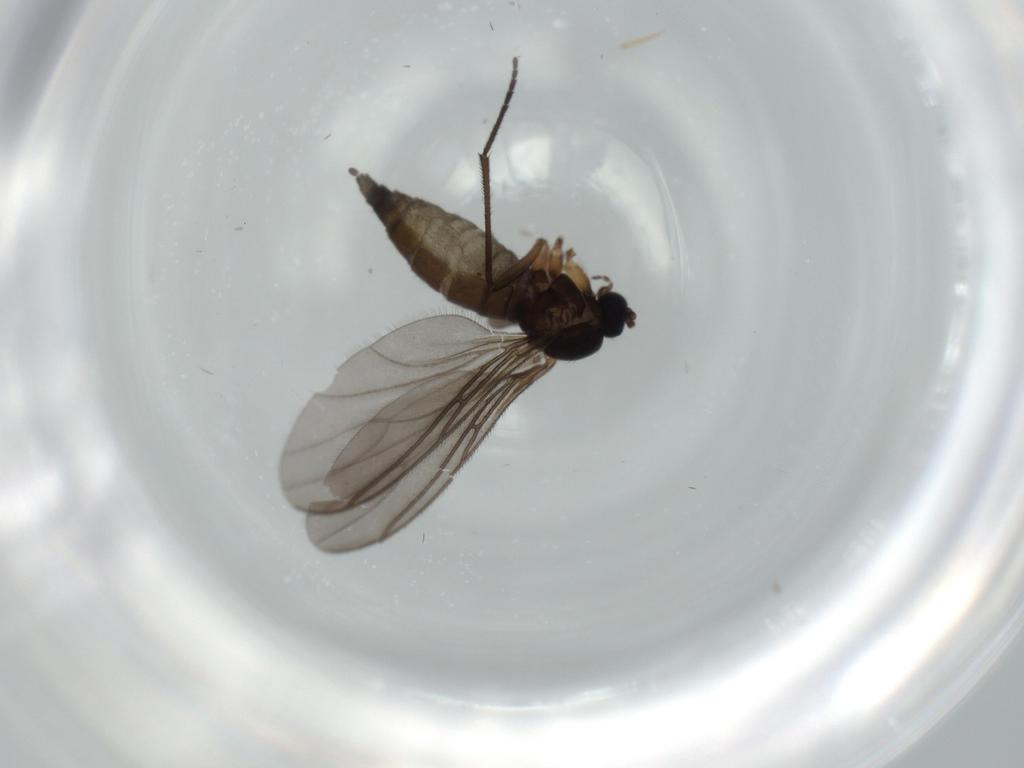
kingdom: Animalia
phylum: Arthropoda
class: Insecta
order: Diptera
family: Sciaridae
